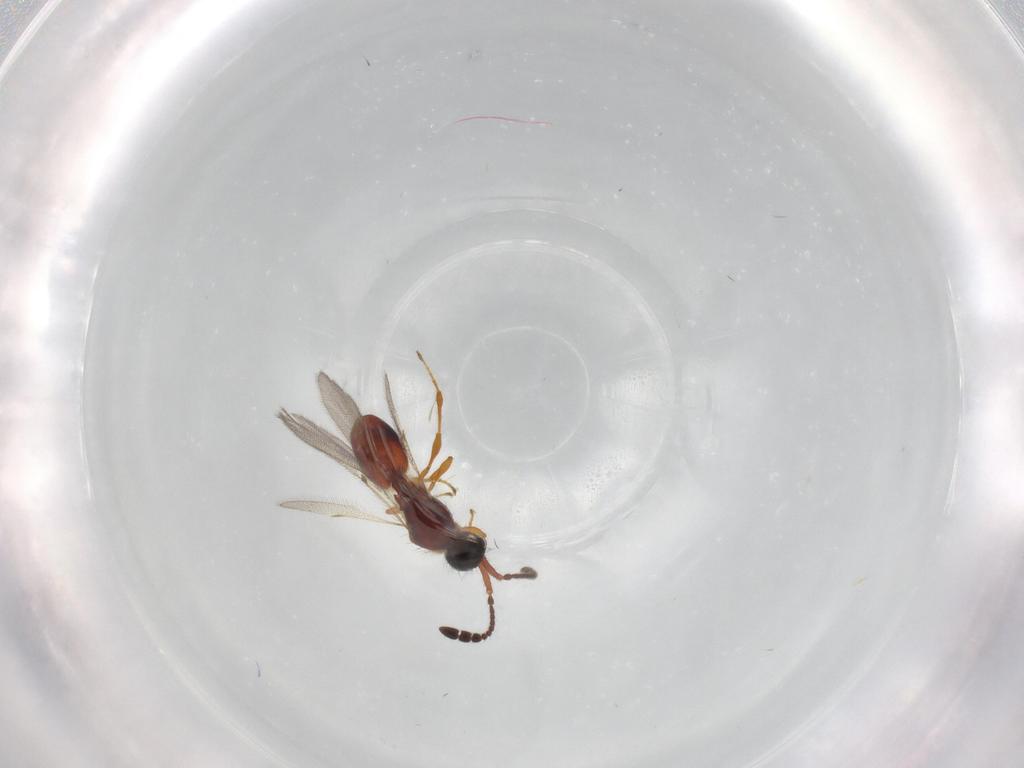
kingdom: Animalia
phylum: Arthropoda
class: Insecta
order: Hymenoptera
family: Diapriidae
